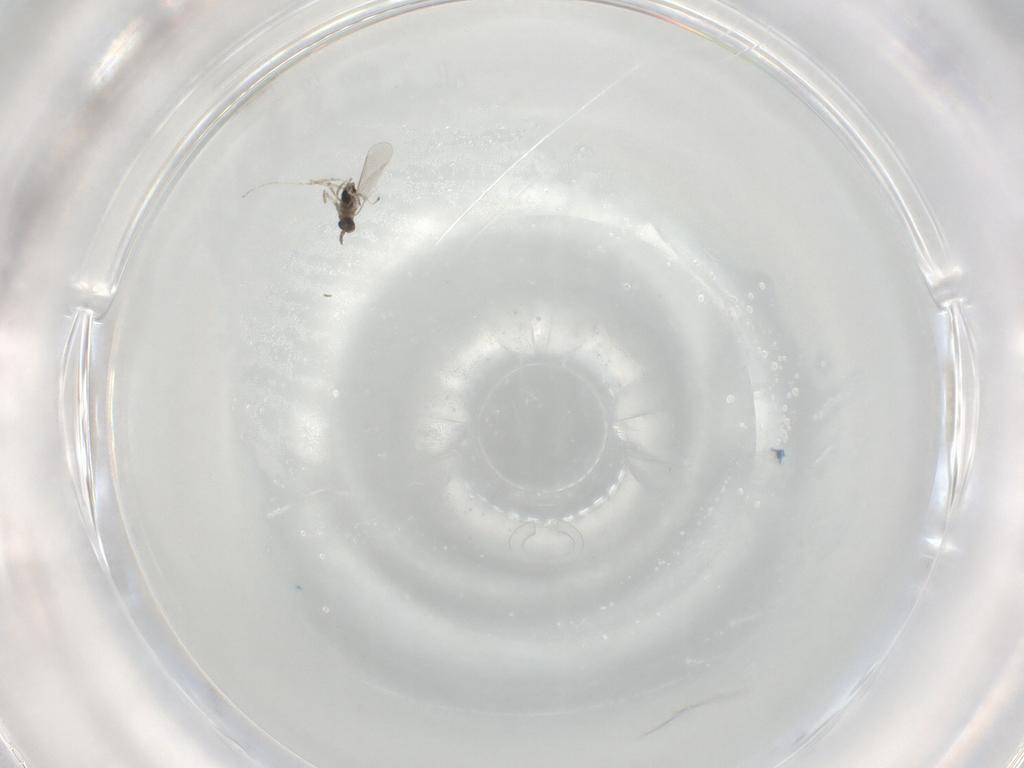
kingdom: Animalia
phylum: Arthropoda
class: Insecta
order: Diptera
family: Cecidomyiidae
